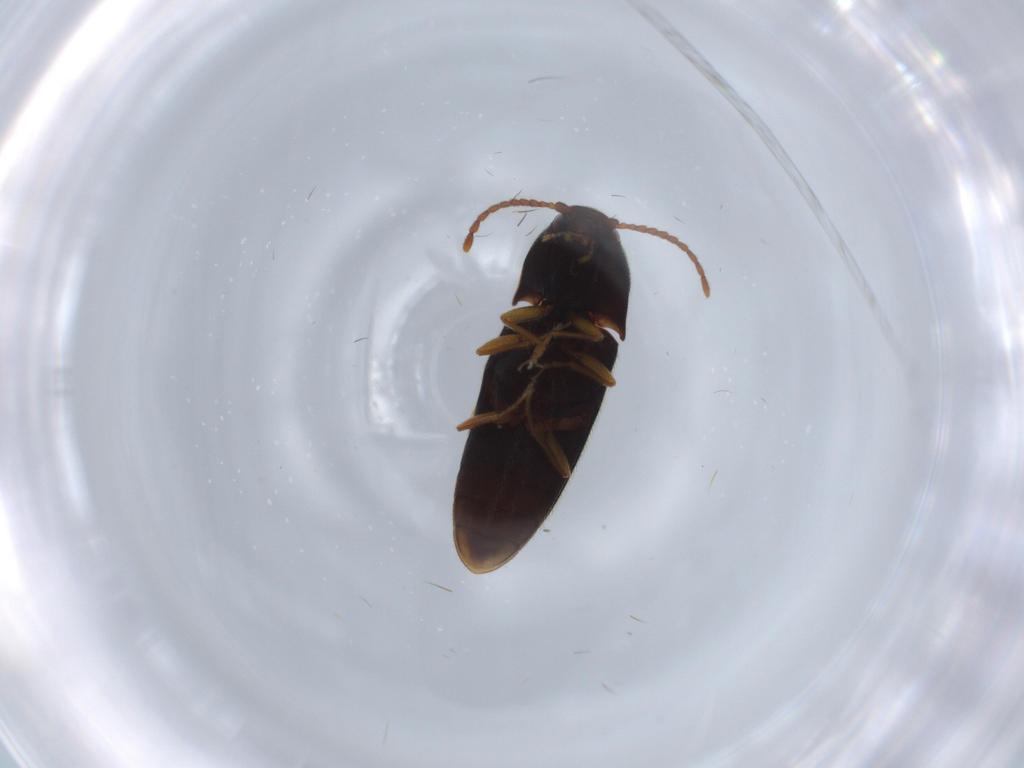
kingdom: Animalia
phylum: Arthropoda
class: Insecta
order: Coleoptera
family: Elateridae
